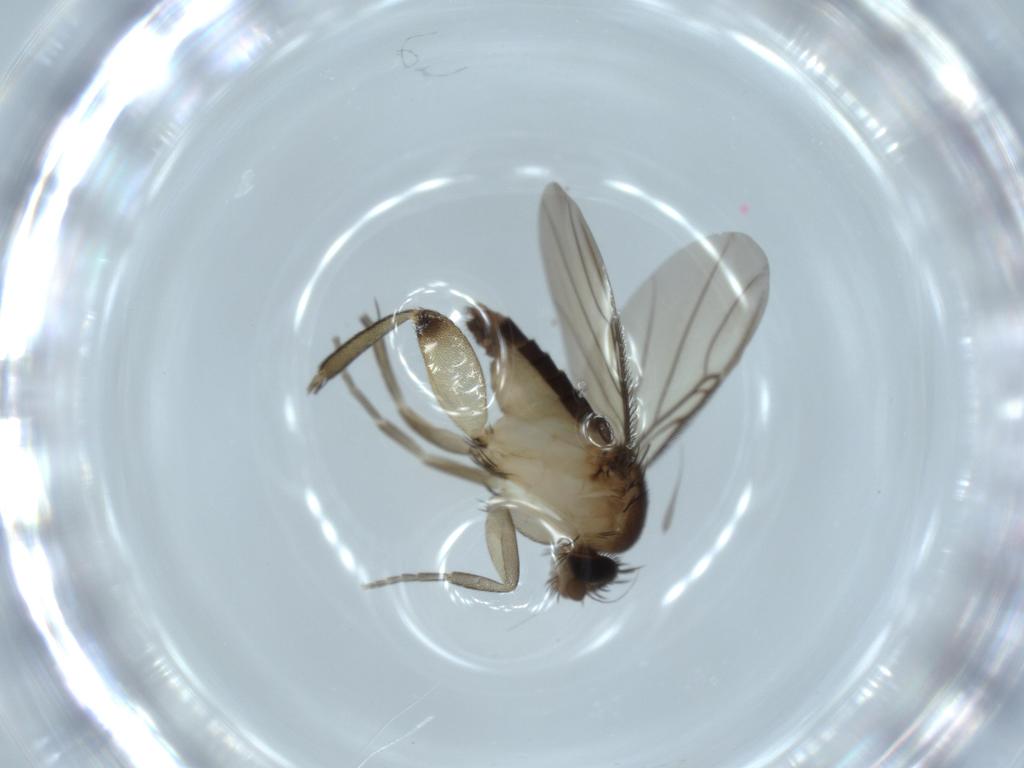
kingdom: Animalia
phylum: Arthropoda
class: Insecta
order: Diptera
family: Phoridae
